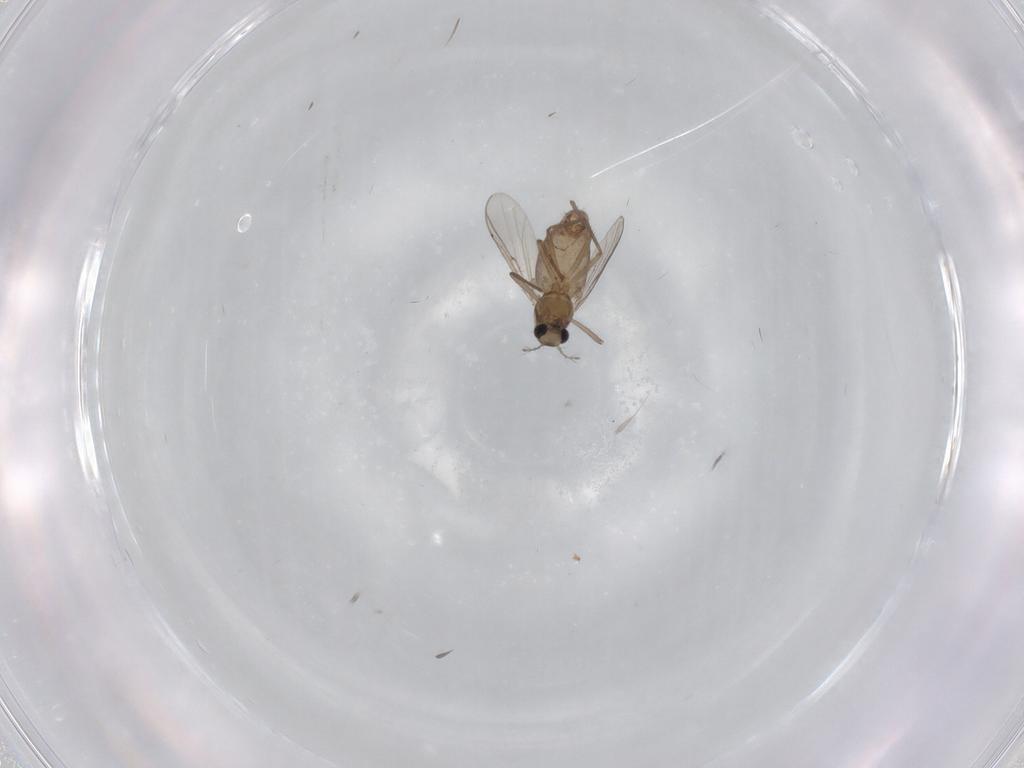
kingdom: Animalia
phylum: Arthropoda
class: Insecta
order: Diptera
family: Chironomidae
